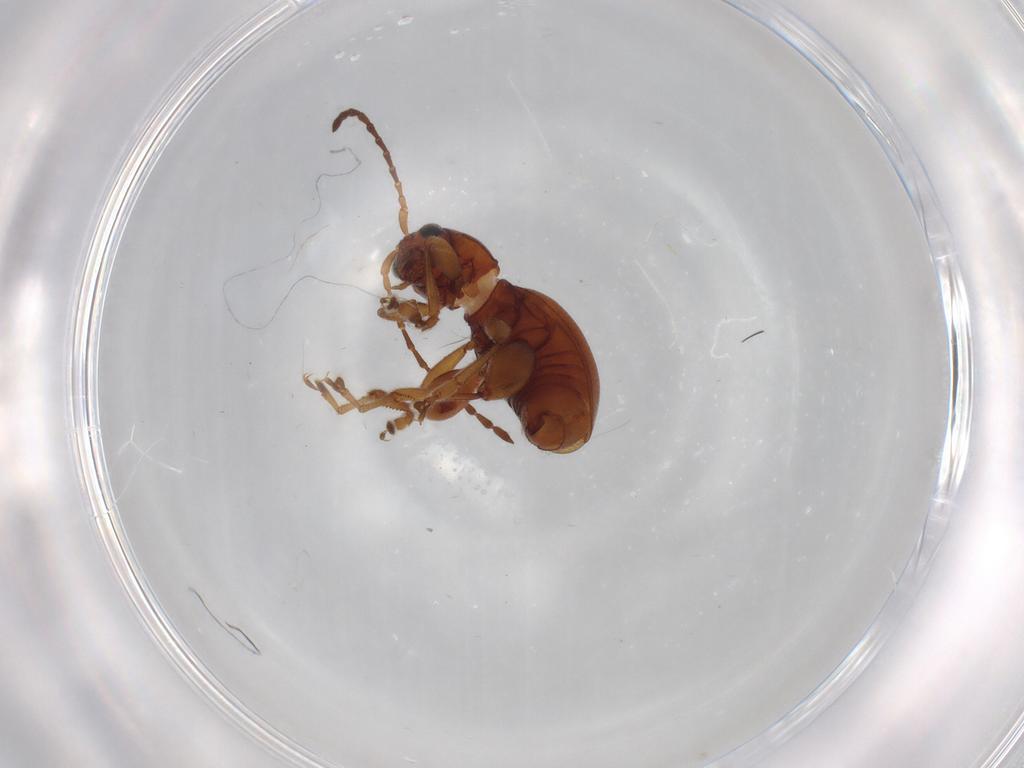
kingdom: Animalia
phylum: Arthropoda
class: Insecta
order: Coleoptera
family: Chrysomelidae
